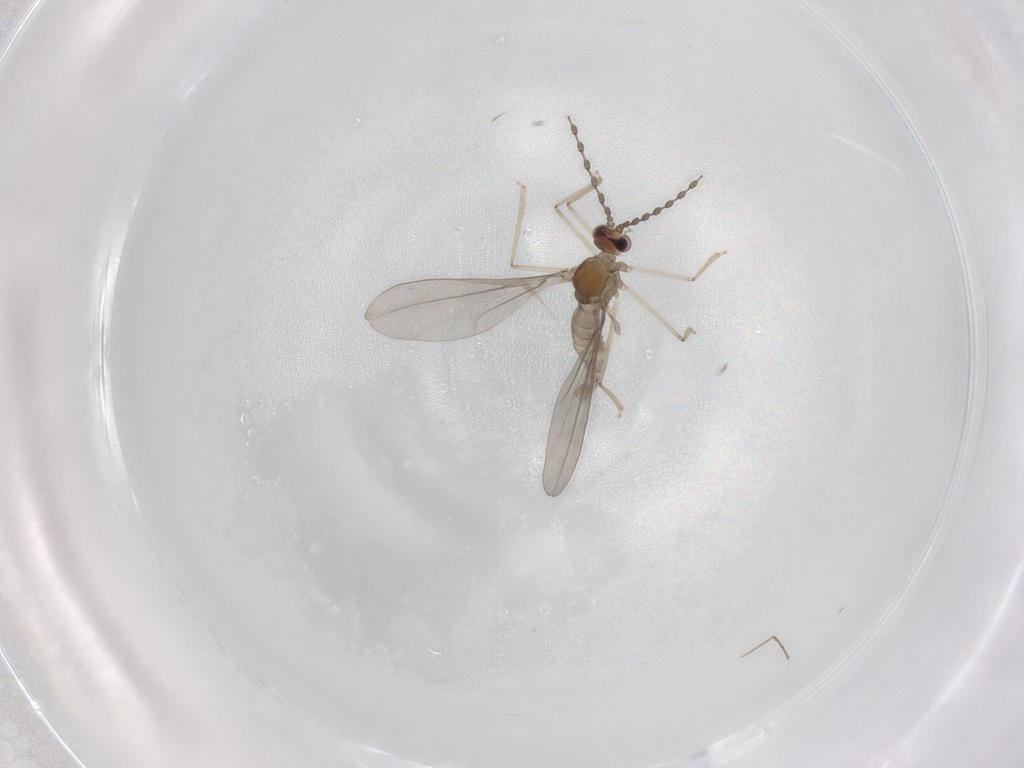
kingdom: Animalia
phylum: Arthropoda
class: Insecta
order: Diptera
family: Cecidomyiidae
